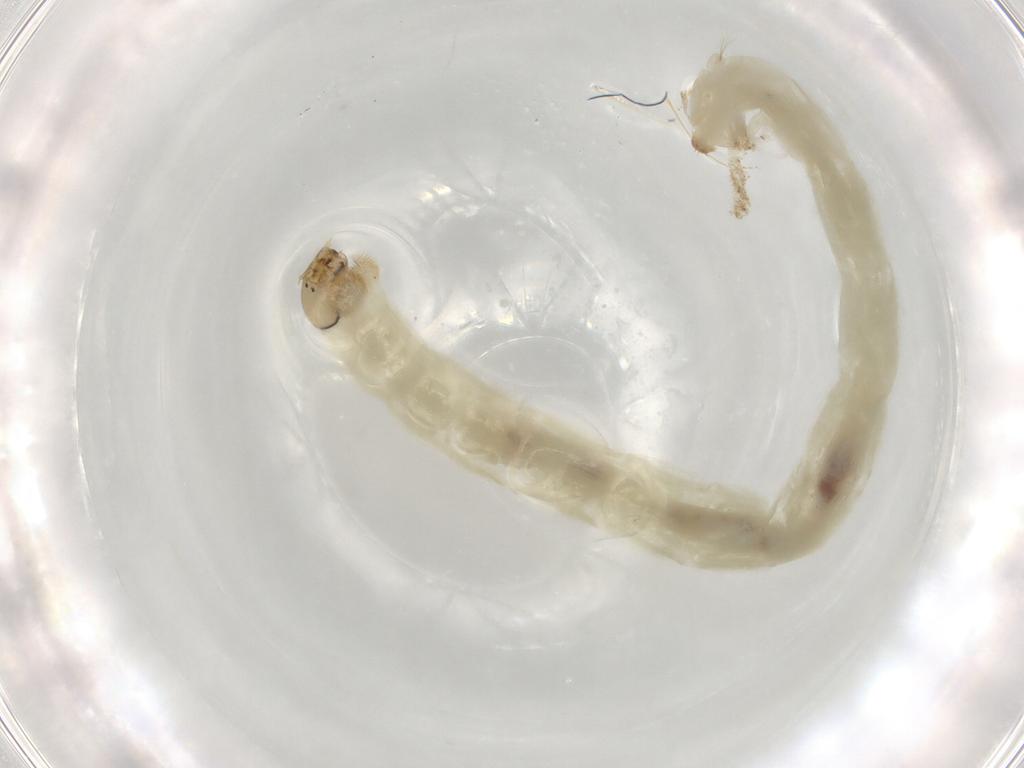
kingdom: Animalia
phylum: Arthropoda
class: Insecta
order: Diptera
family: Chironomidae
